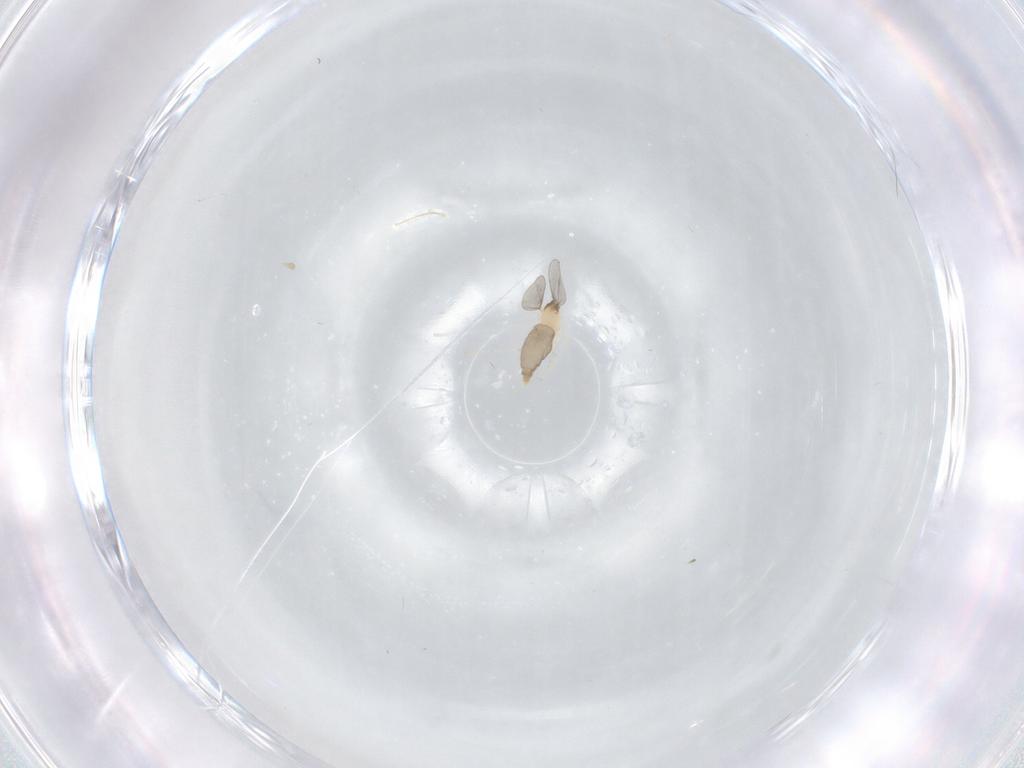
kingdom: Animalia
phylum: Arthropoda
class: Insecta
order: Diptera
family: Cecidomyiidae
